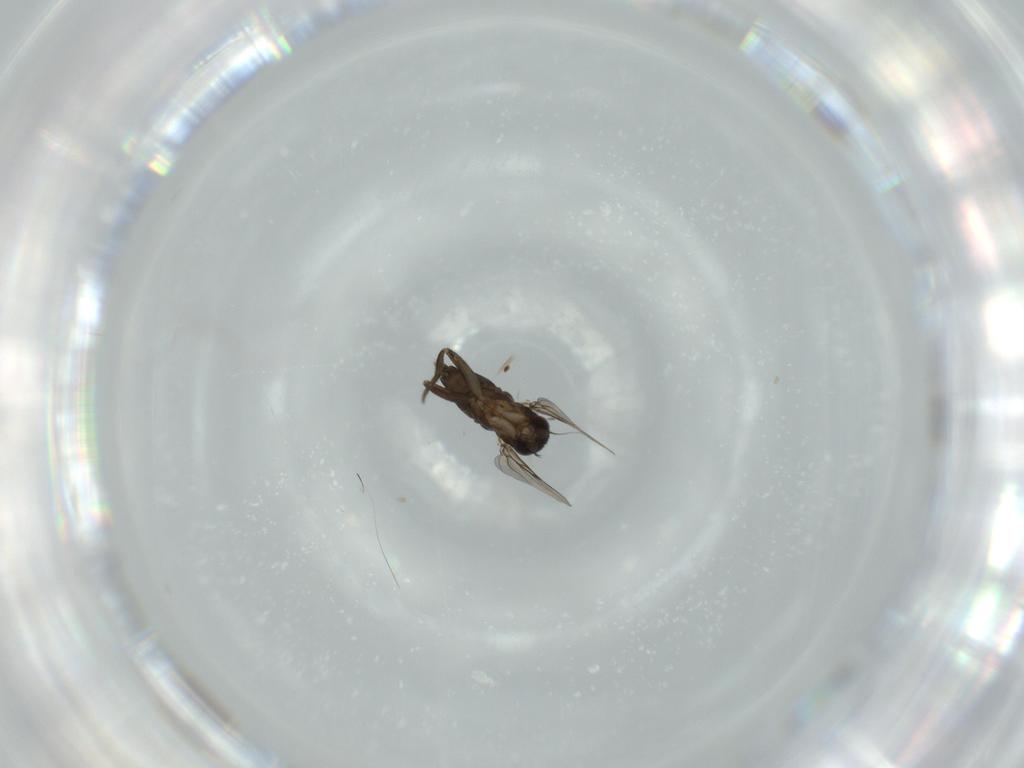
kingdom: Animalia
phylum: Arthropoda
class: Insecta
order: Diptera
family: Phoridae
